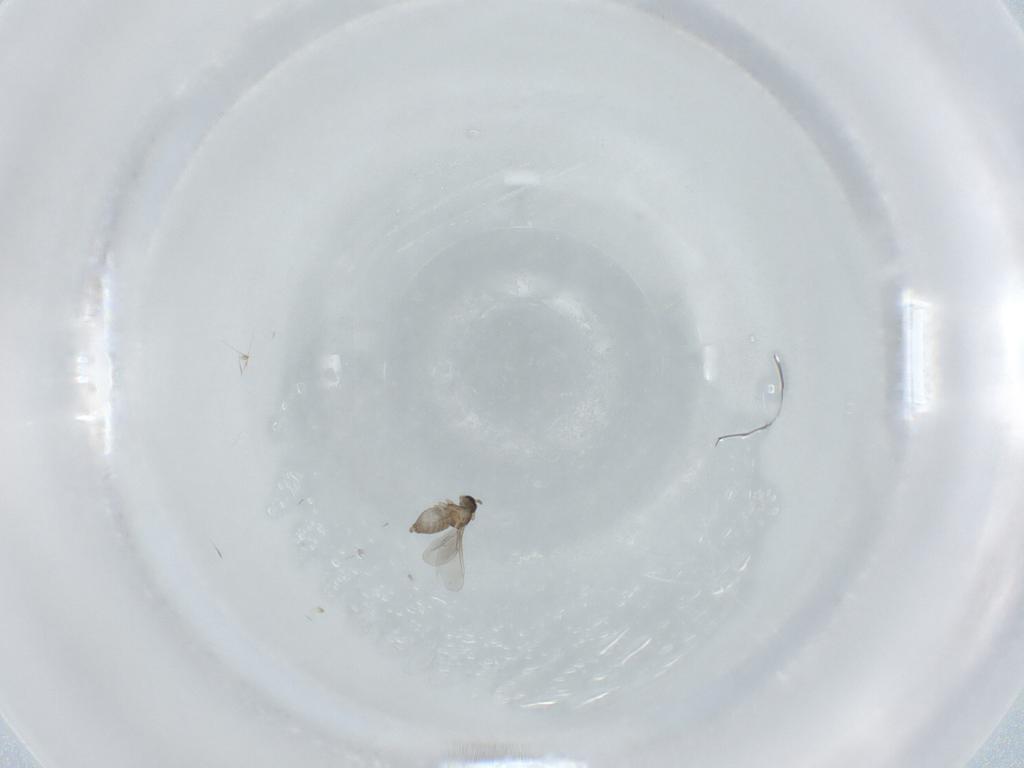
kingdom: Animalia
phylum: Arthropoda
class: Insecta
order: Diptera
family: Cecidomyiidae
